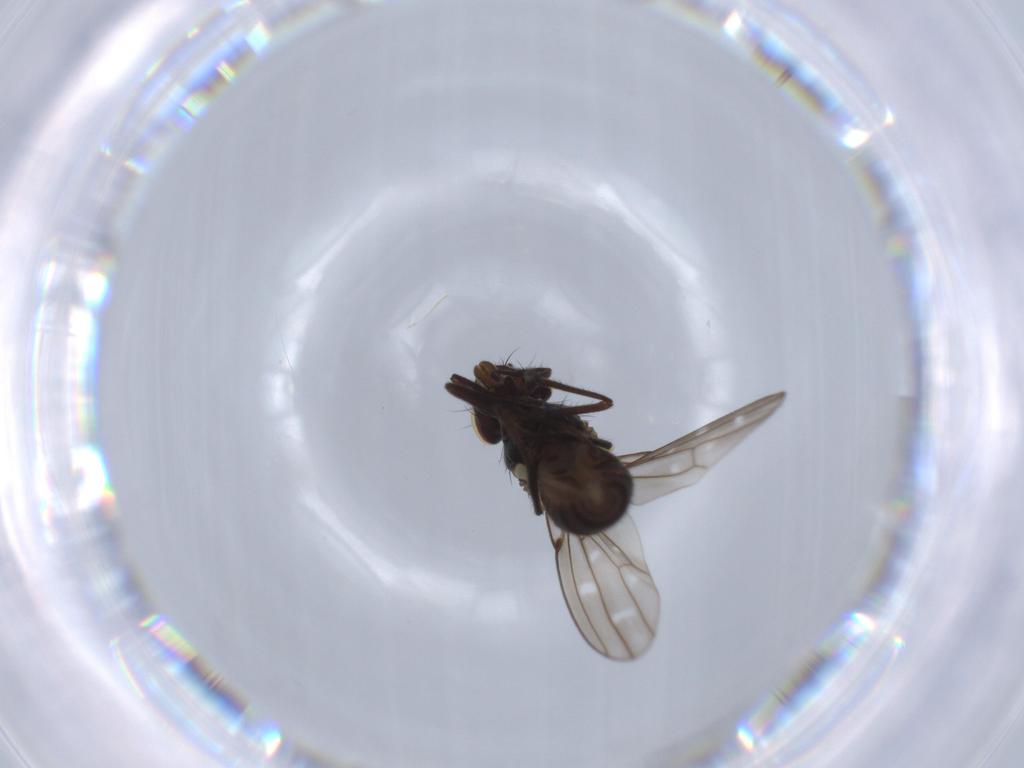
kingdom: Animalia
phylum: Arthropoda
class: Insecta
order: Diptera
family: Ephydridae
